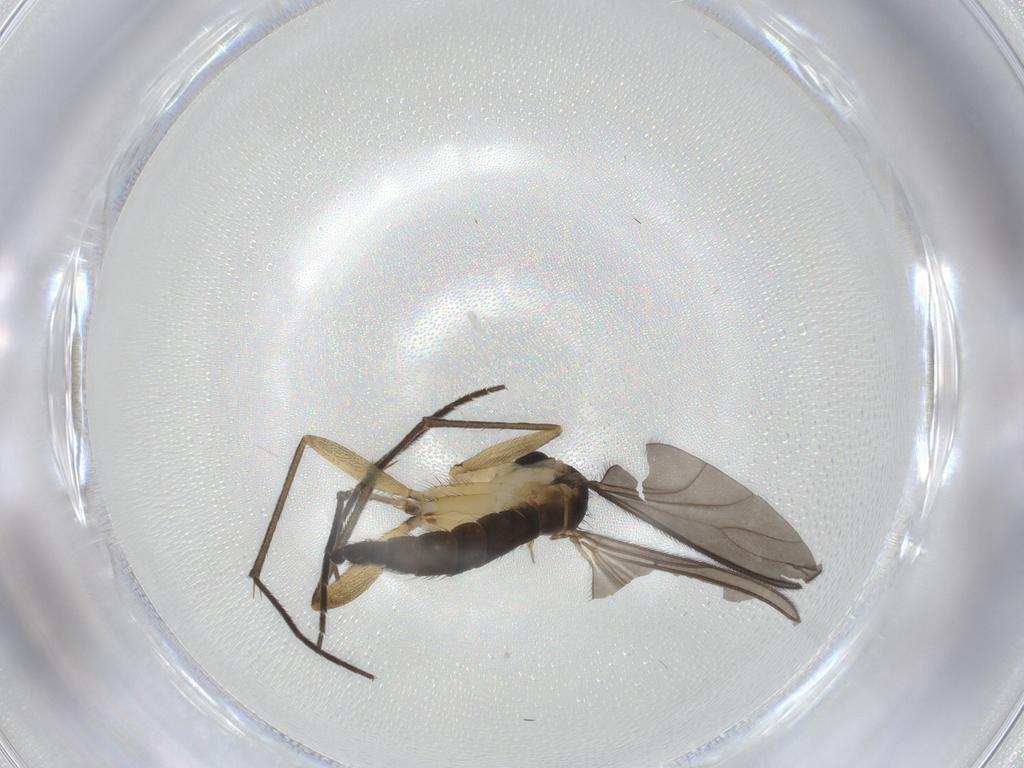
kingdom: Animalia
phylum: Arthropoda
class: Insecta
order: Diptera
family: Sciaridae
